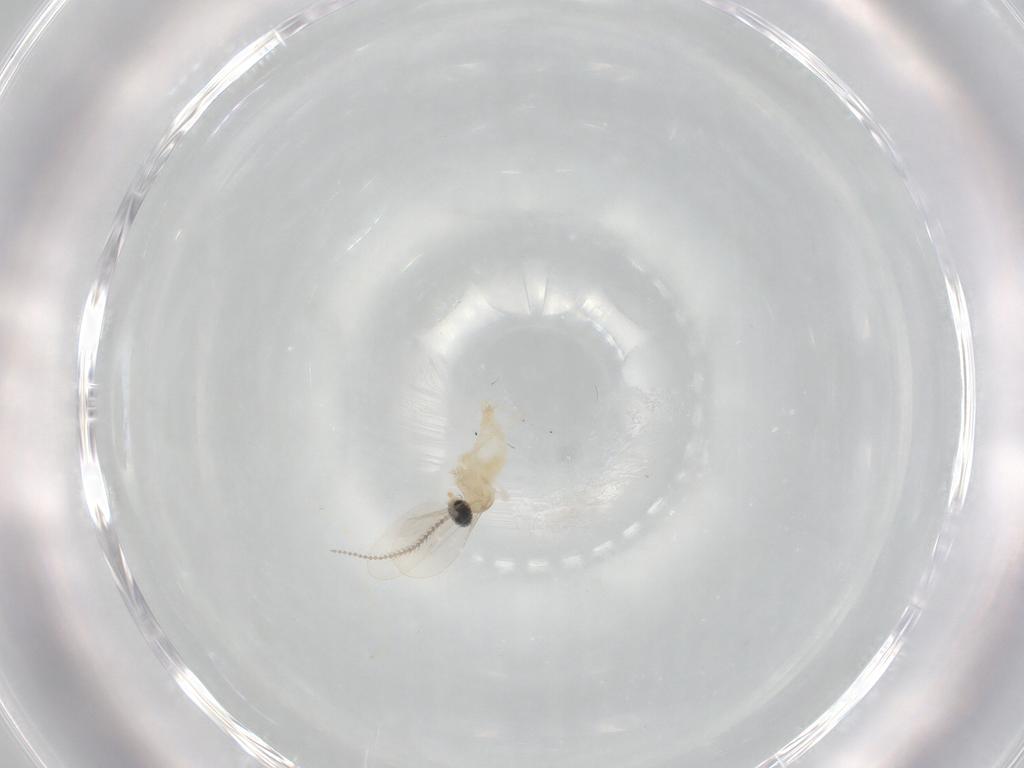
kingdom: Animalia
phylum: Arthropoda
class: Insecta
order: Diptera
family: Cecidomyiidae
